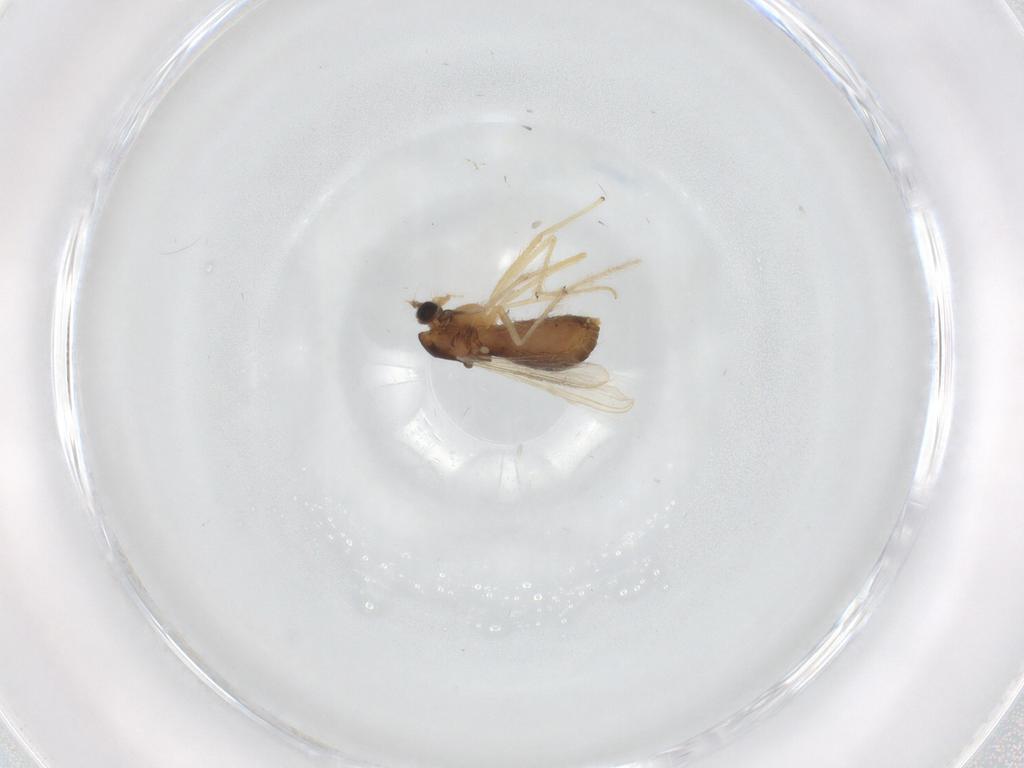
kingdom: Animalia
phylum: Arthropoda
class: Insecta
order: Diptera
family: Chironomidae
